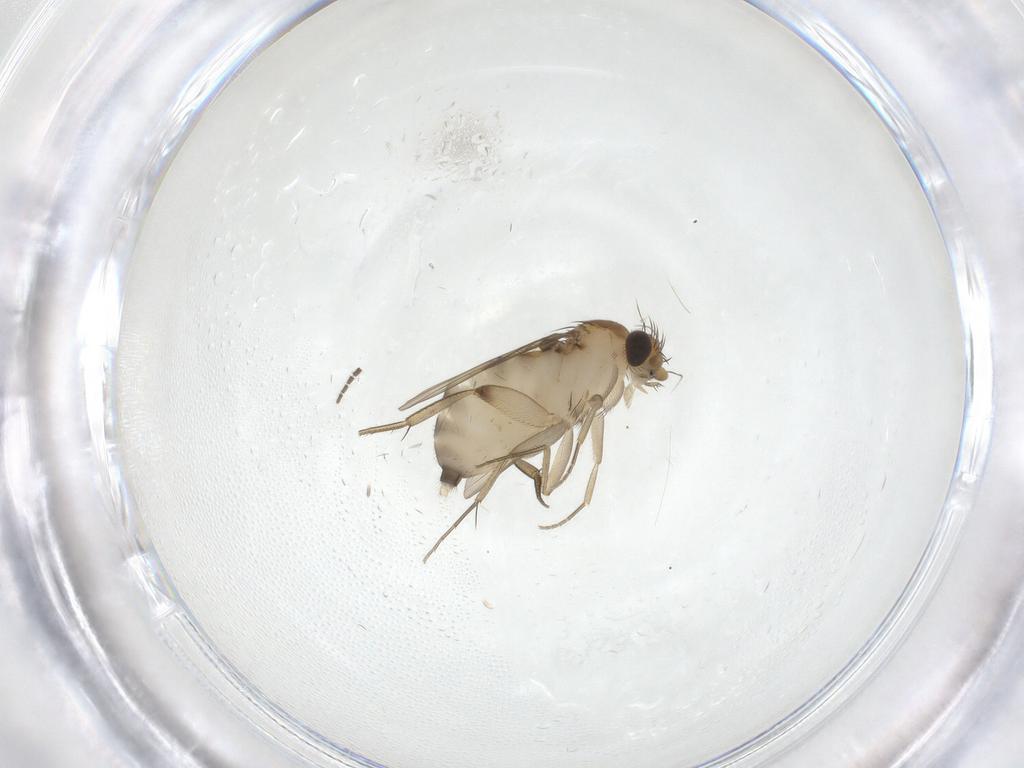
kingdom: Animalia
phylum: Arthropoda
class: Insecta
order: Diptera
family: Phoridae
